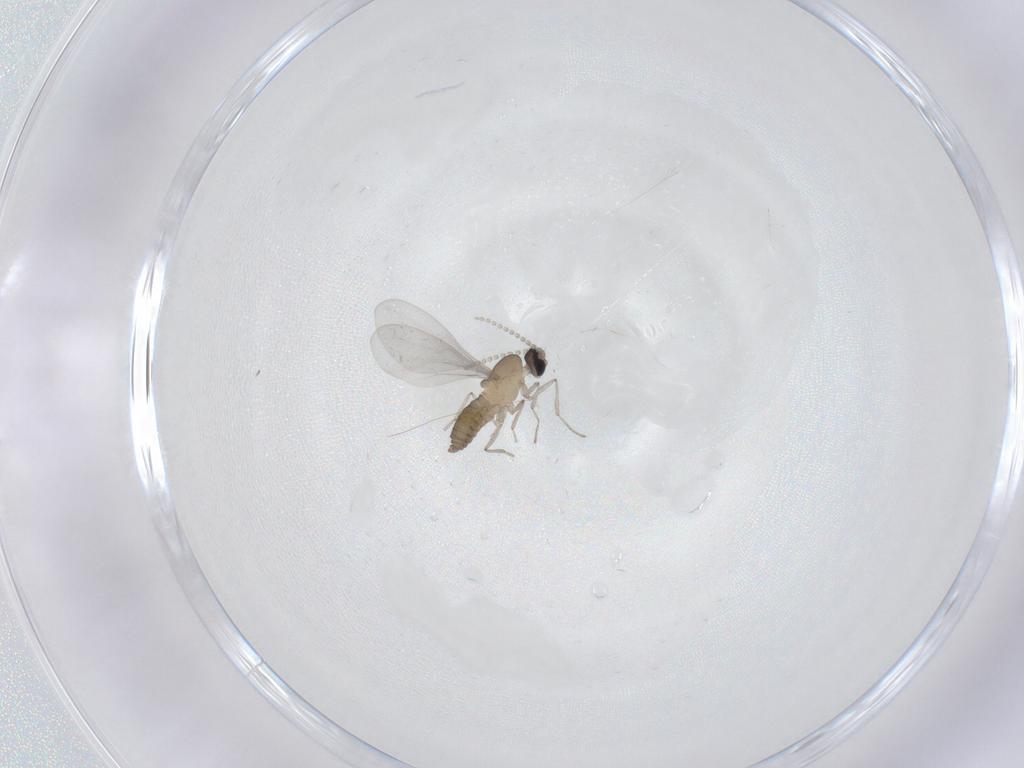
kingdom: Animalia
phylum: Arthropoda
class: Insecta
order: Diptera
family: Cecidomyiidae
